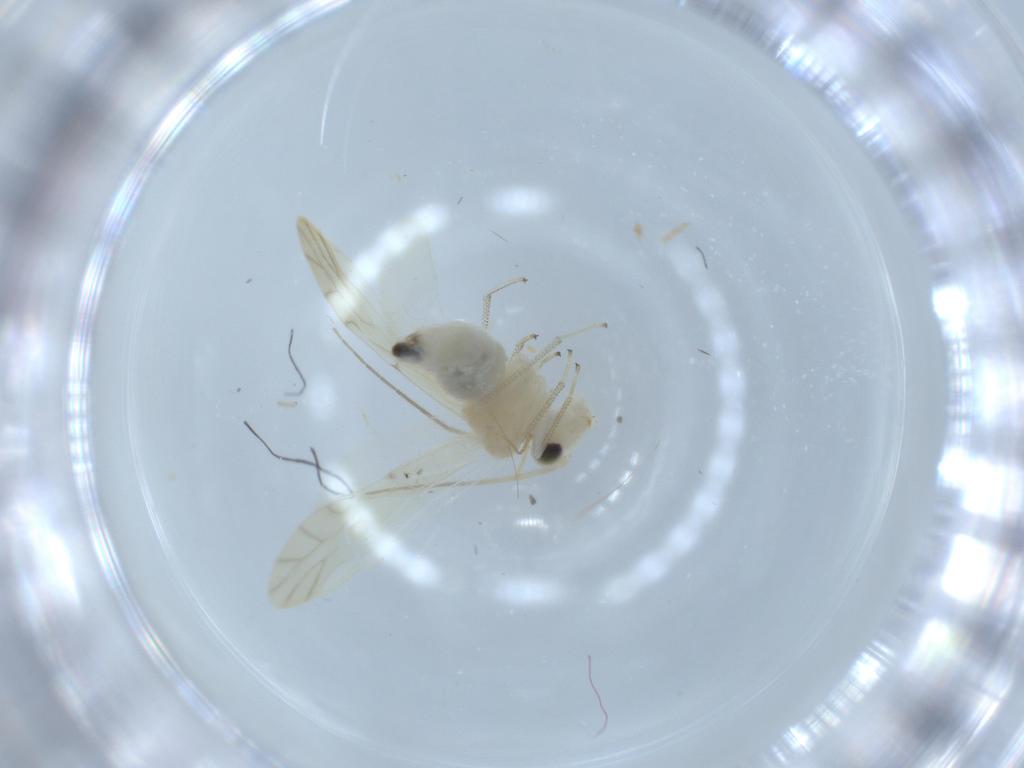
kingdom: Animalia
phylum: Arthropoda
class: Insecta
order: Psocodea
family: Caeciliusidae
